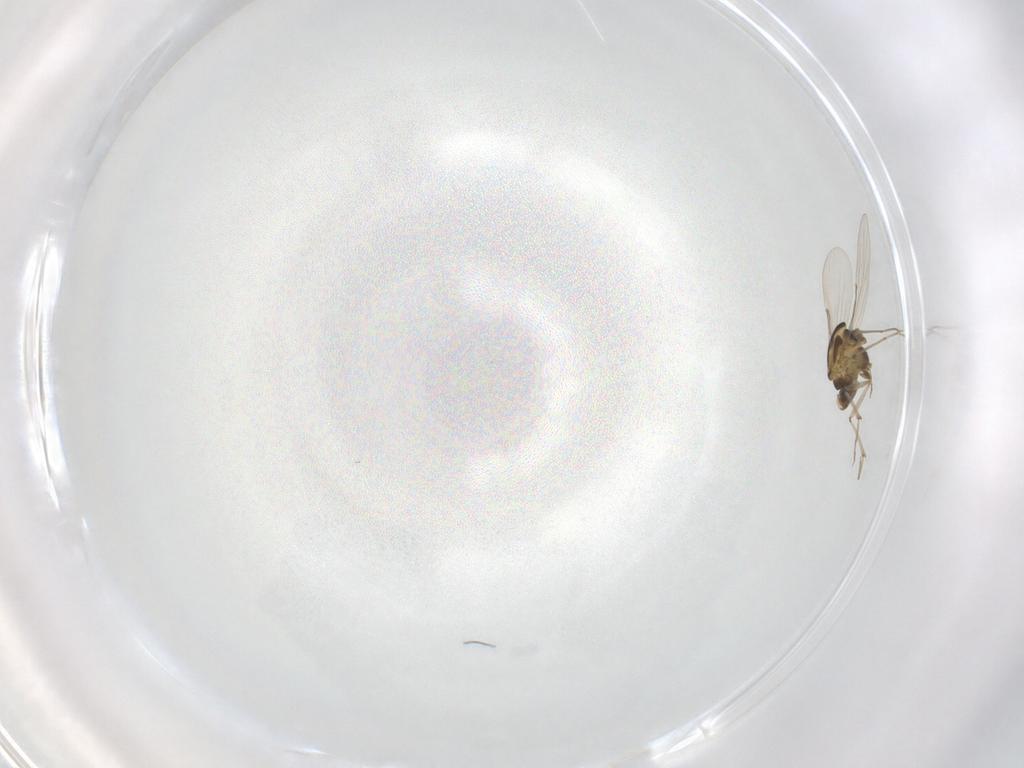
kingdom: Animalia
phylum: Arthropoda
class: Insecta
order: Diptera
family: Chironomidae
